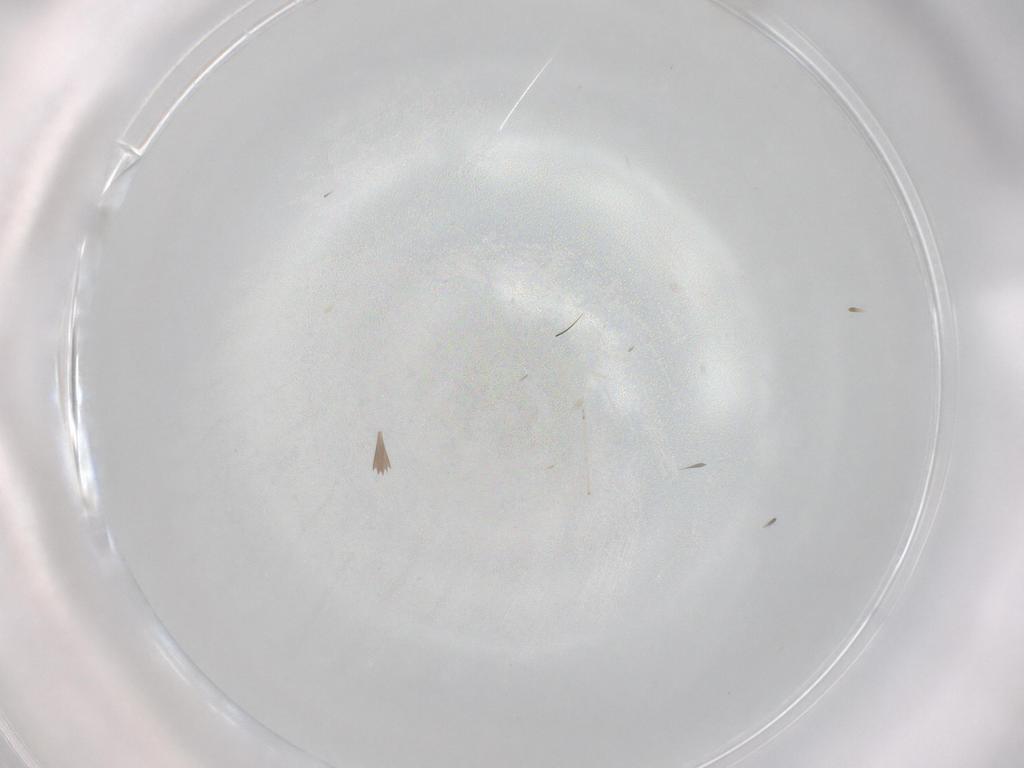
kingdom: Animalia
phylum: Arthropoda
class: Insecta
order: Diptera
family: Cecidomyiidae
